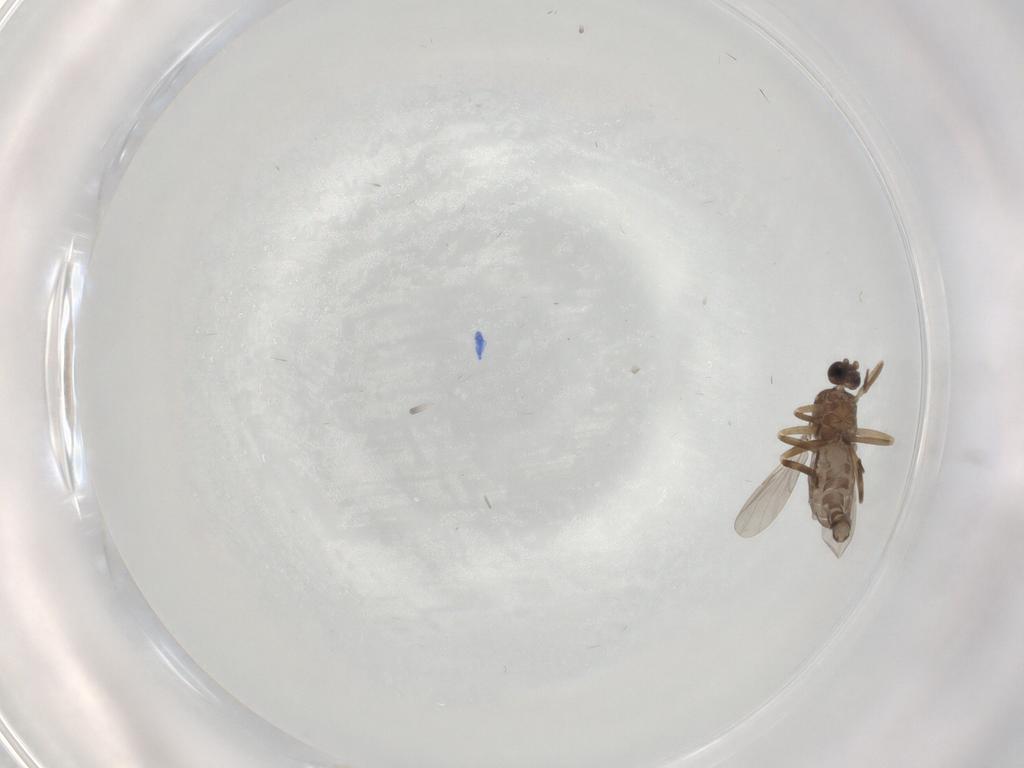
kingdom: Animalia
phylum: Arthropoda
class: Insecta
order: Diptera
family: Ceratopogonidae
